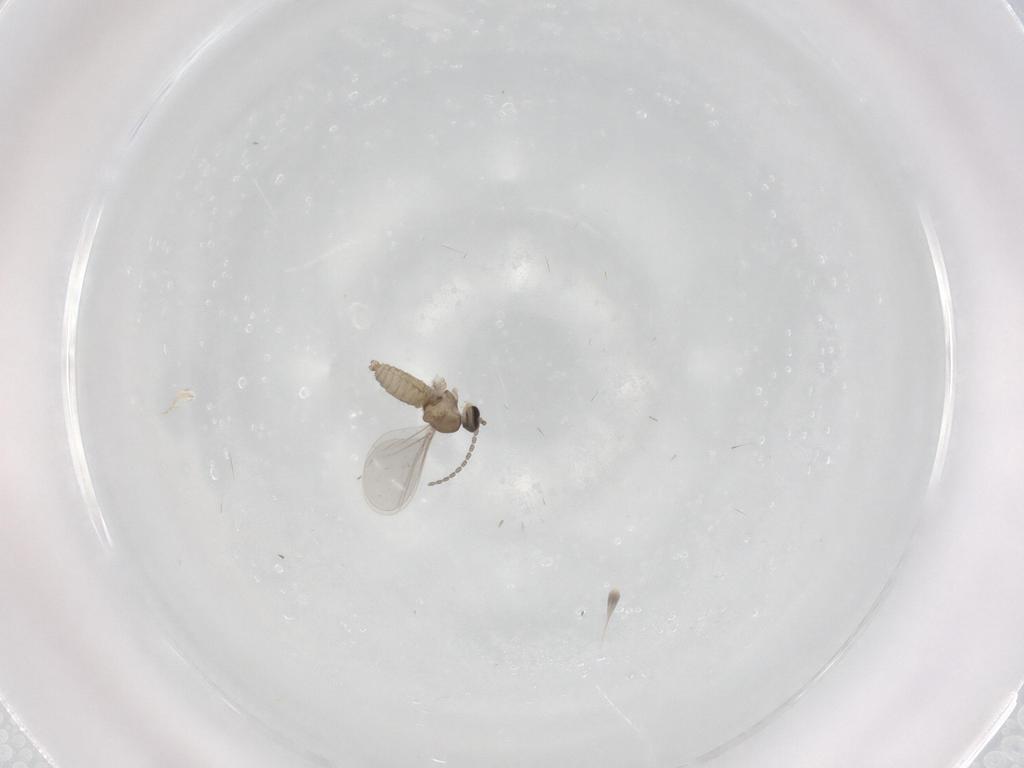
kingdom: Animalia
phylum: Arthropoda
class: Insecta
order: Diptera
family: Cecidomyiidae
